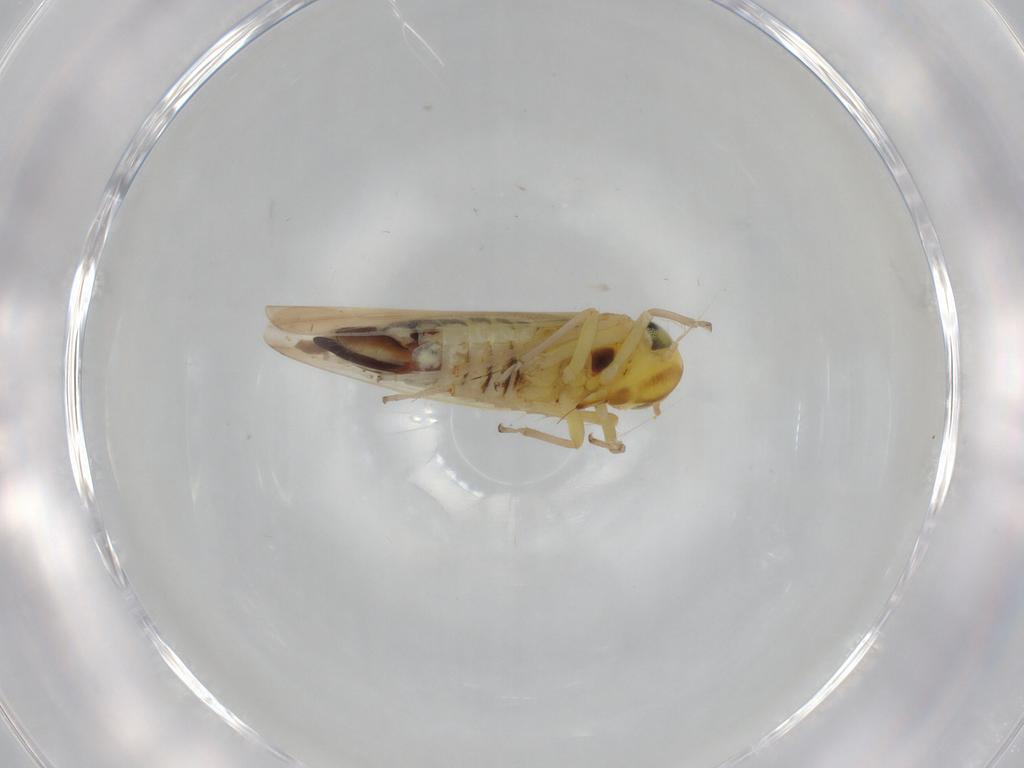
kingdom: Animalia
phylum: Arthropoda
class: Insecta
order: Hemiptera
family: Cicadellidae
